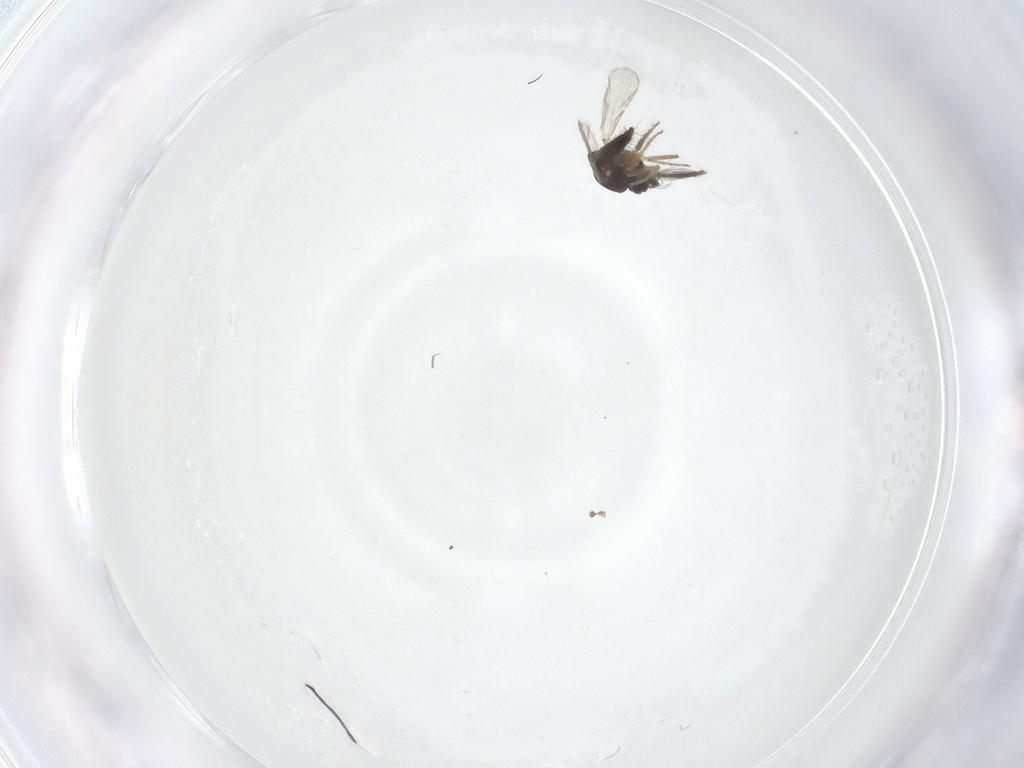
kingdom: Animalia
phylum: Arthropoda
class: Insecta
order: Diptera
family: Ceratopogonidae
